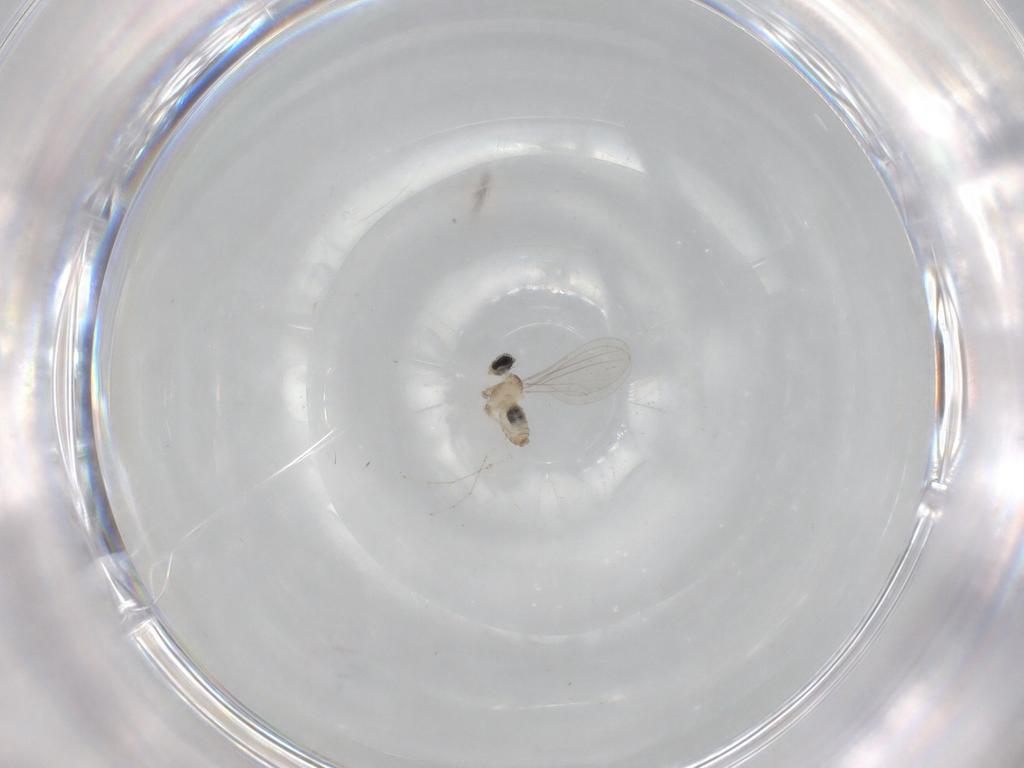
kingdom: Animalia
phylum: Arthropoda
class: Insecta
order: Diptera
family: Cecidomyiidae
